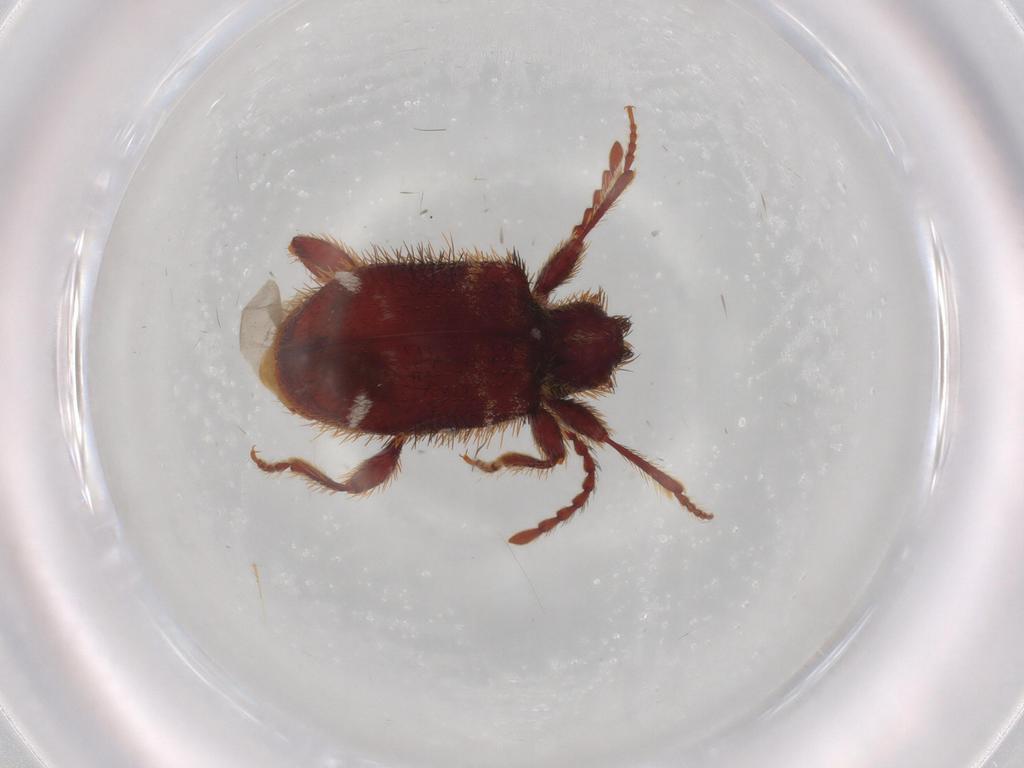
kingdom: Animalia
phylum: Arthropoda
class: Insecta
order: Coleoptera
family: Ptinidae
